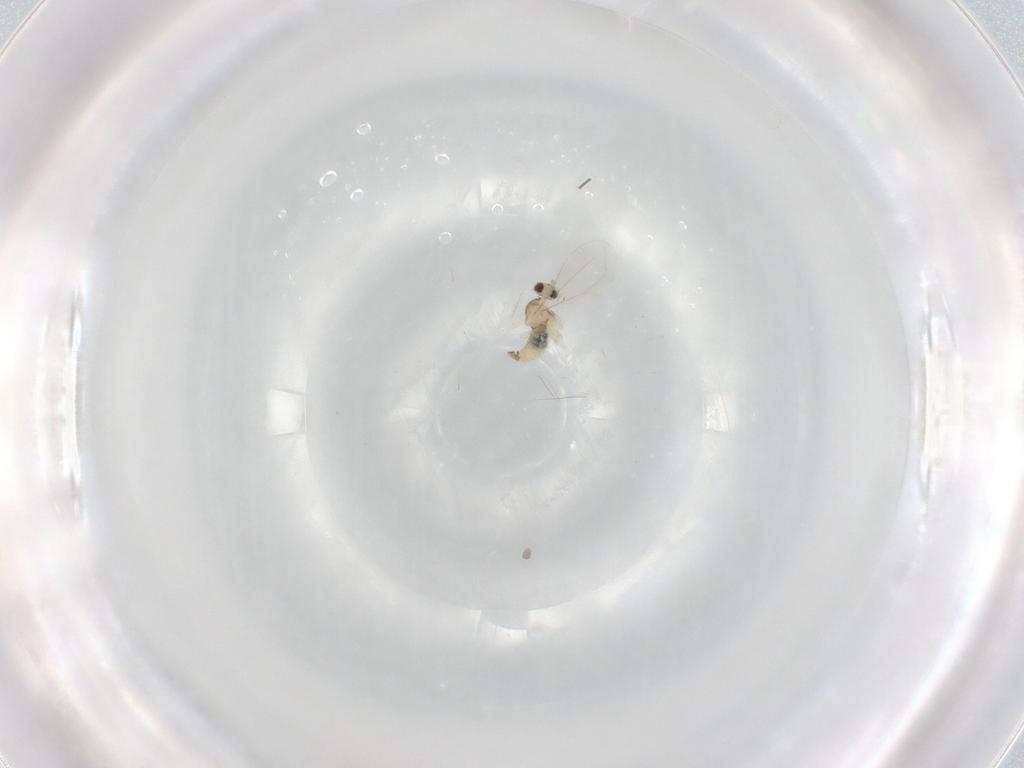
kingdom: Animalia
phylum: Arthropoda
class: Insecta
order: Diptera
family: Cecidomyiidae
